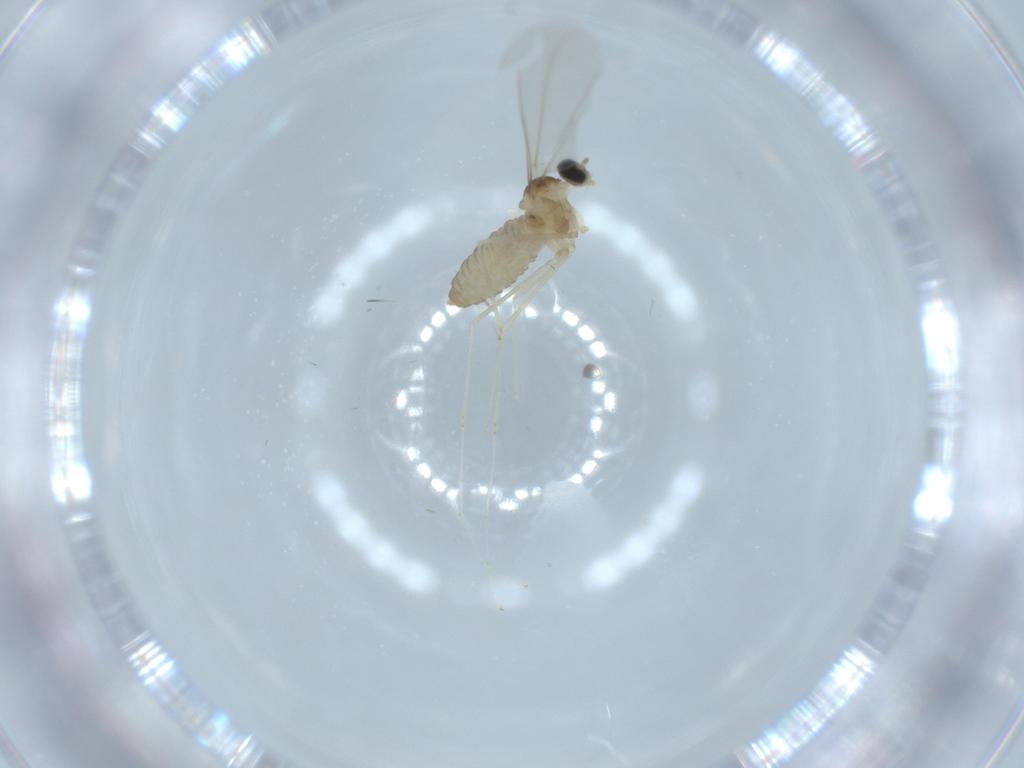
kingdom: Animalia
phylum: Arthropoda
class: Insecta
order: Diptera
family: Cecidomyiidae
